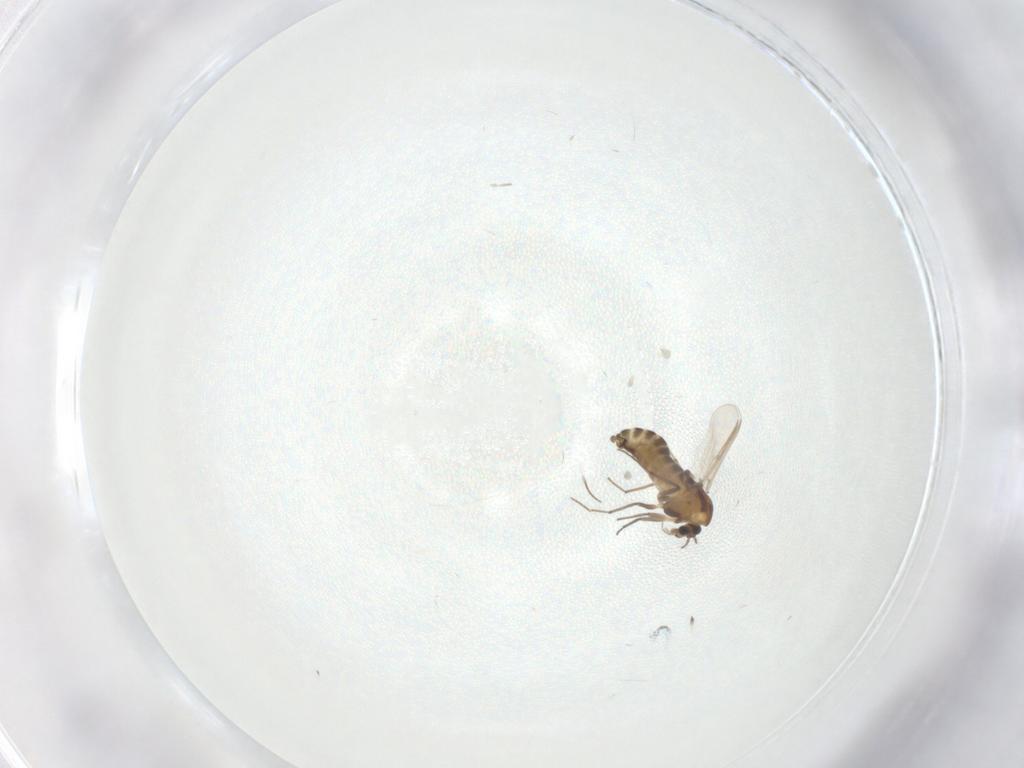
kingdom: Animalia
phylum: Arthropoda
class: Insecta
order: Diptera
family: Chironomidae
